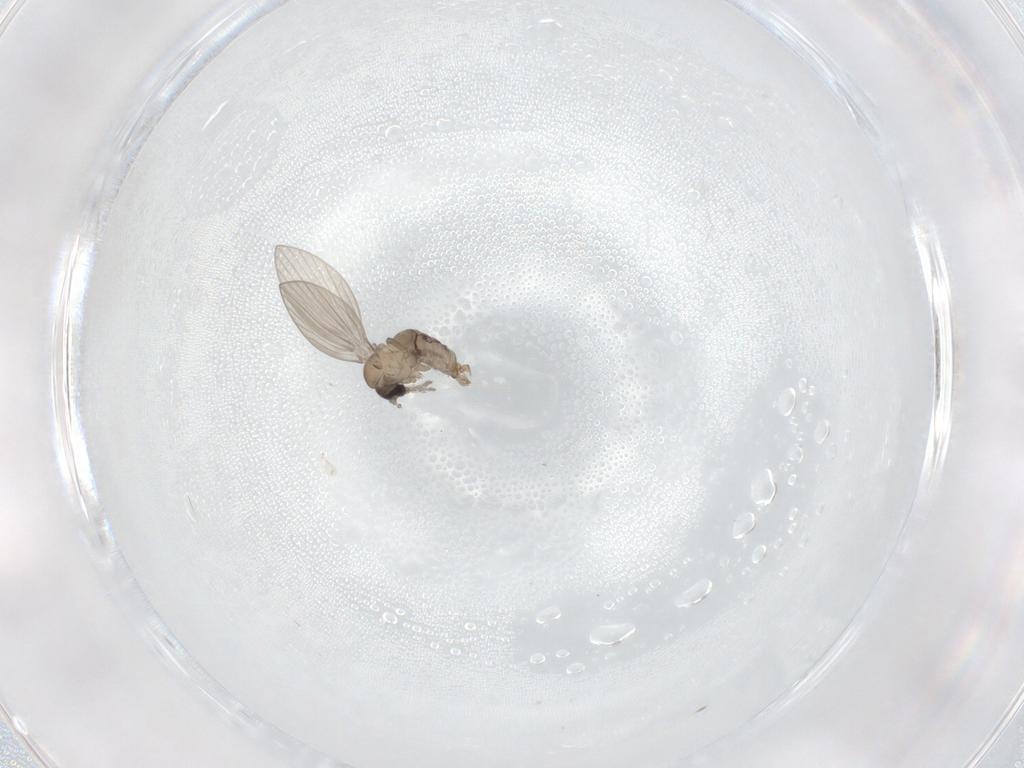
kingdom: Animalia
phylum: Arthropoda
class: Insecta
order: Diptera
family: Psychodidae
